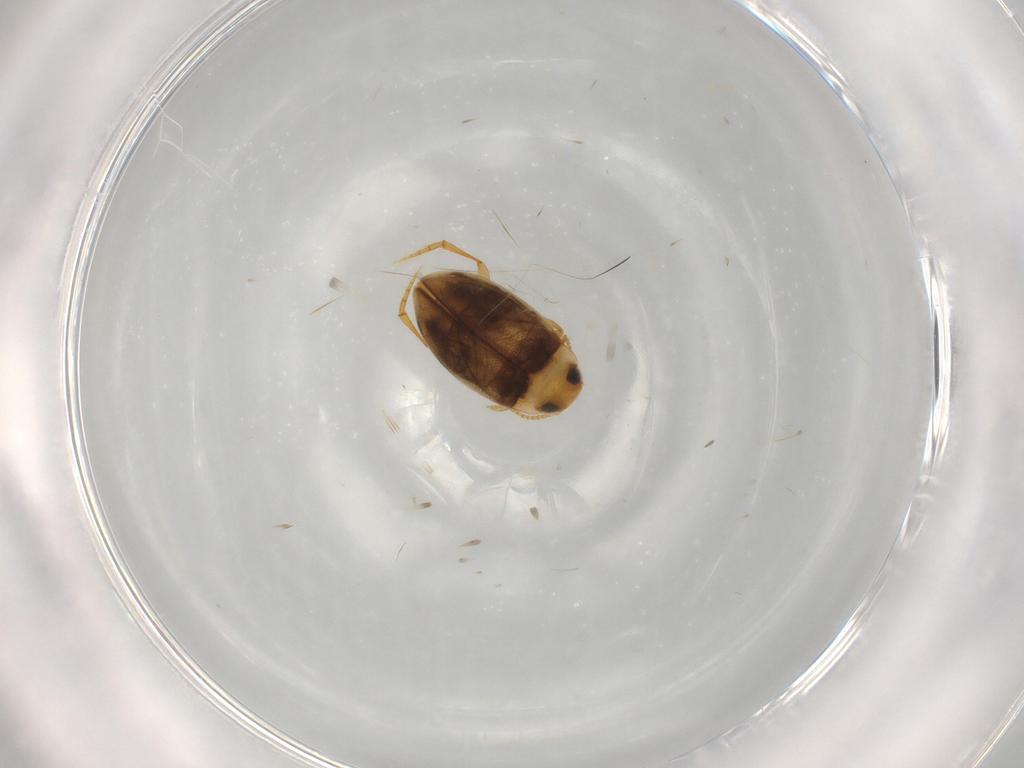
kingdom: Animalia
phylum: Arthropoda
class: Insecta
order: Coleoptera
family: Dytiscidae
